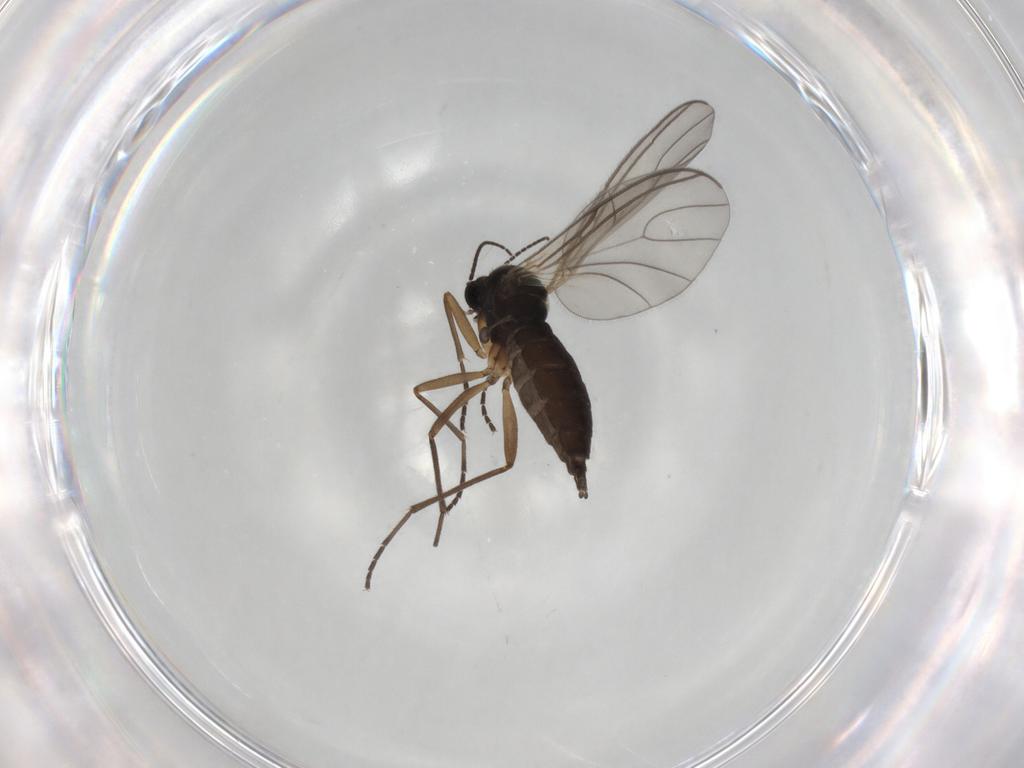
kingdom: Animalia
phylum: Arthropoda
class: Insecta
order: Diptera
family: Sciaridae
